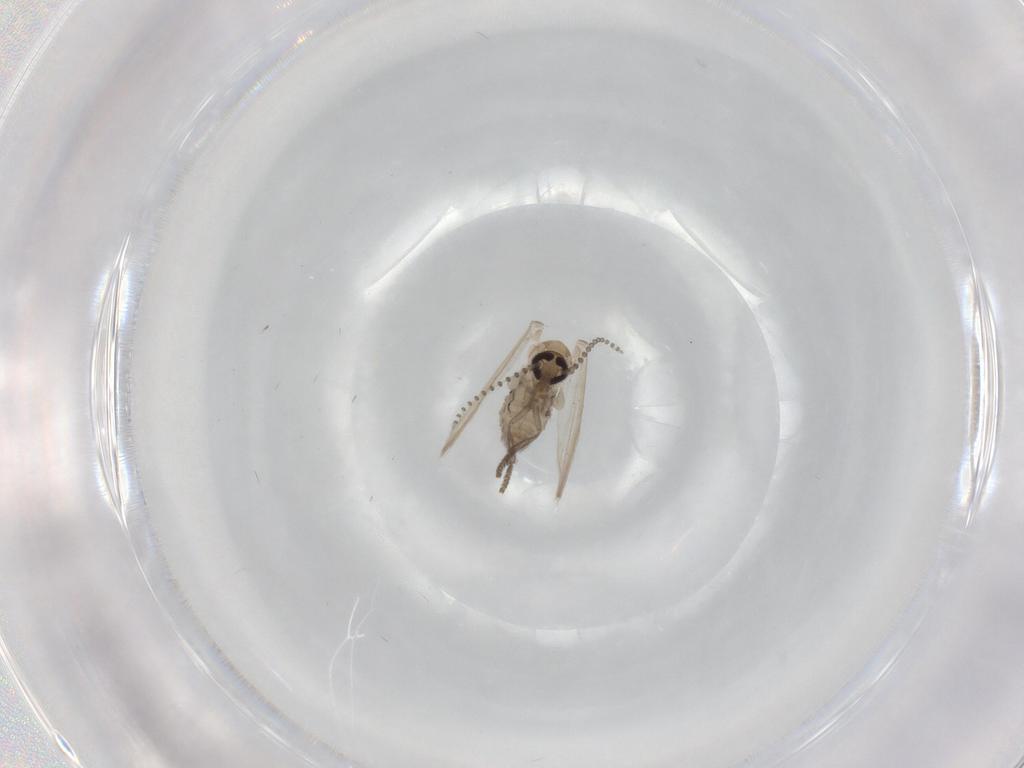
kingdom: Animalia
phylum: Arthropoda
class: Insecta
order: Diptera
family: Psychodidae
